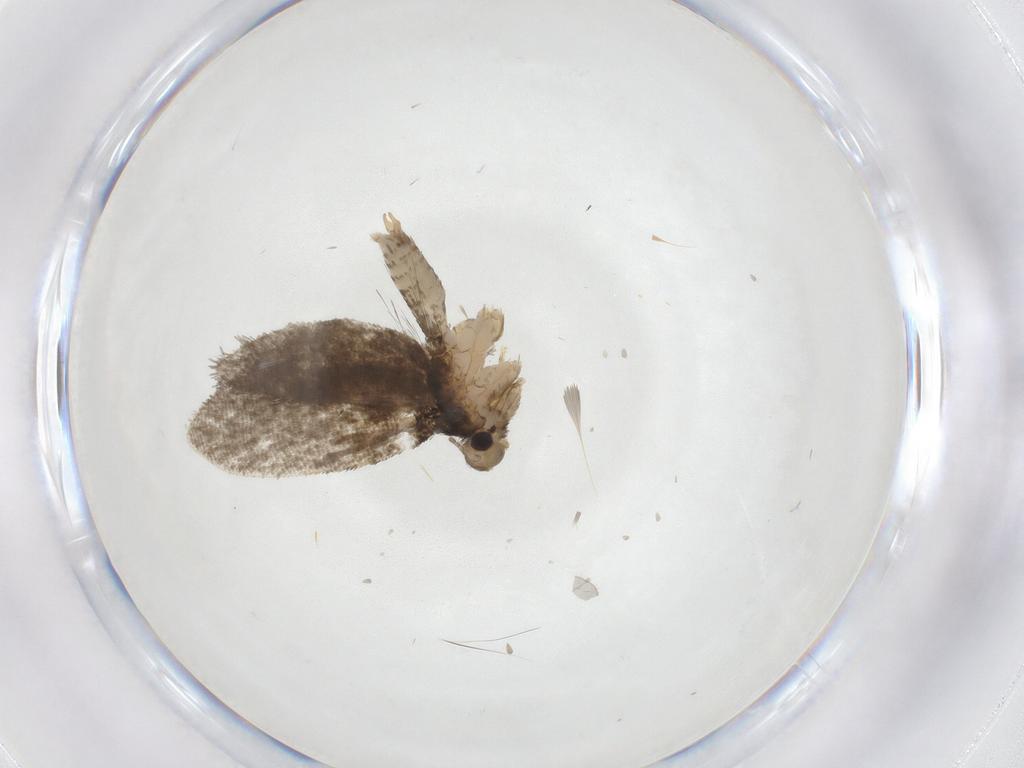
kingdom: Animalia
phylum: Arthropoda
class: Insecta
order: Lepidoptera
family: Psychidae
